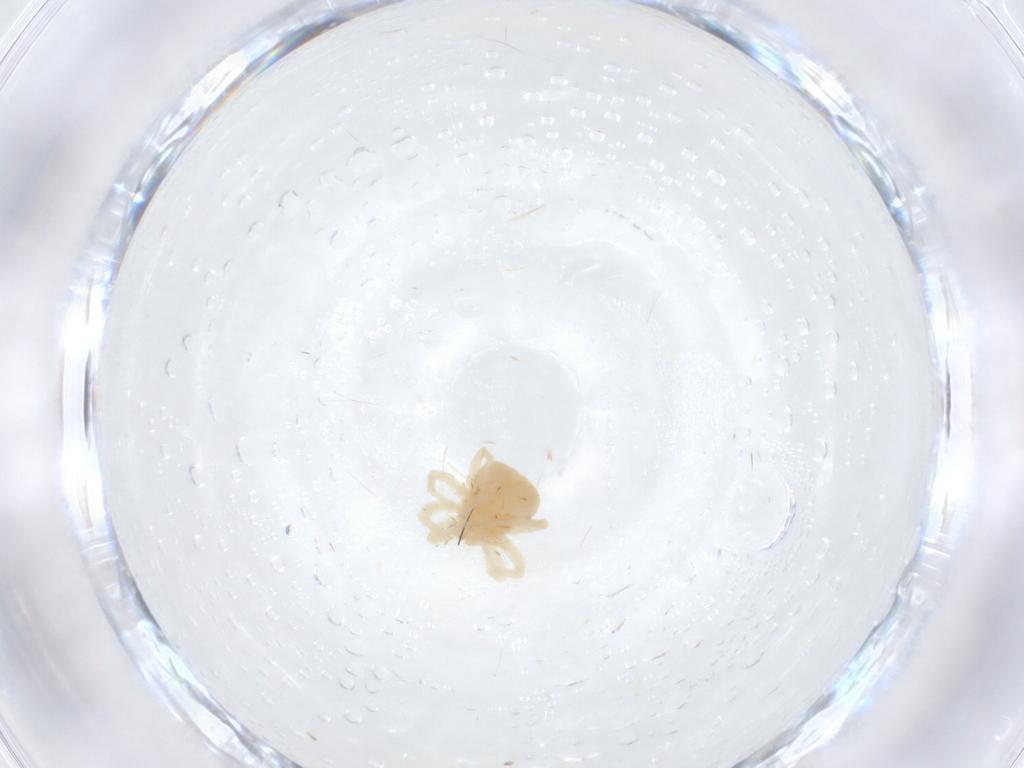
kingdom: Animalia
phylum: Arthropoda
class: Arachnida
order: Trombidiformes
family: Anystidae
